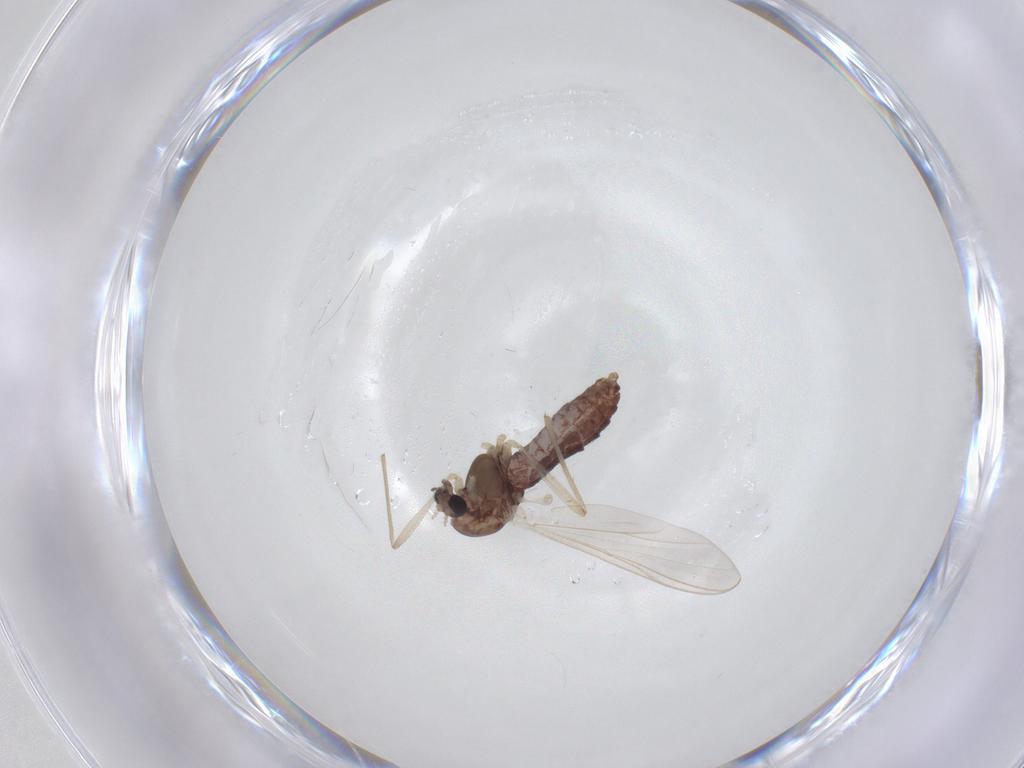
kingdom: Animalia
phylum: Arthropoda
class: Insecta
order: Diptera
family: Chironomidae
